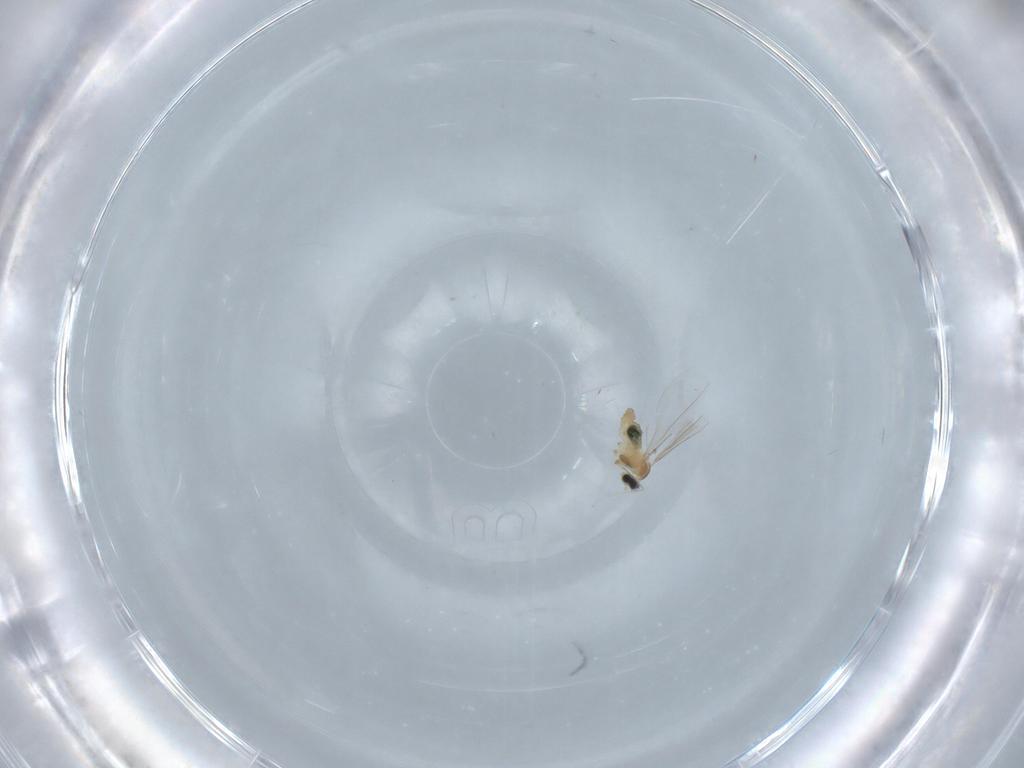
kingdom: Animalia
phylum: Arthropoda
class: Insecta
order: Diptera
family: Cecidomyiidae
